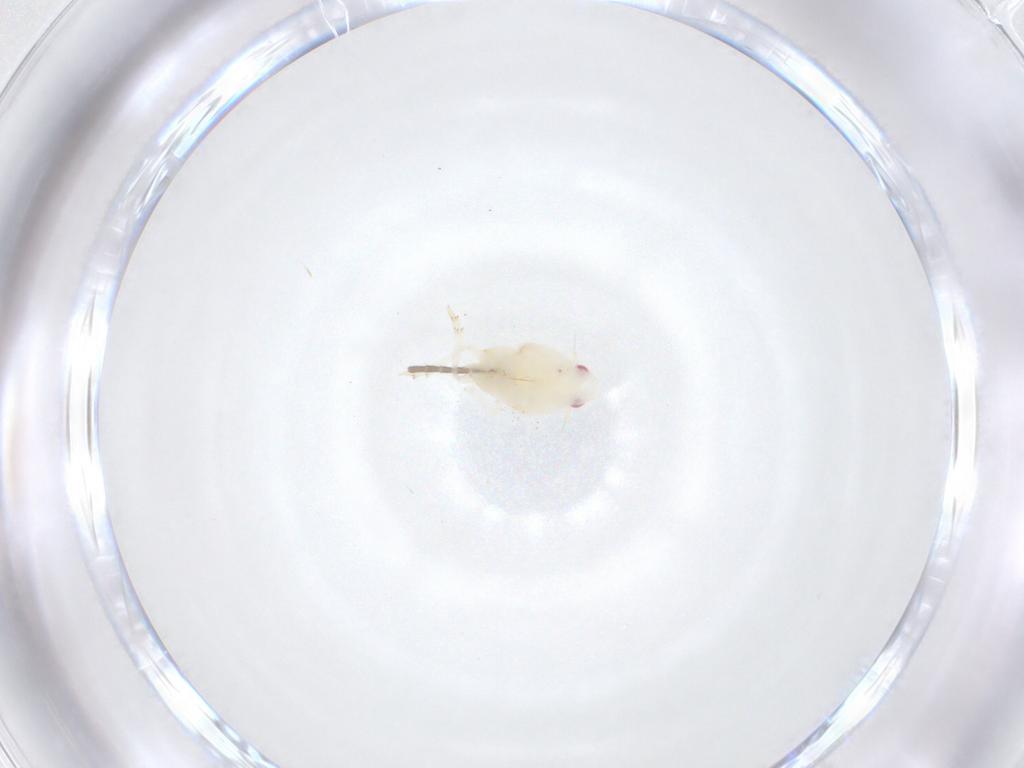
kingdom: Animalia
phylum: Arthropoda
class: Insecta
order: Hemiptera
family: Flatidae
